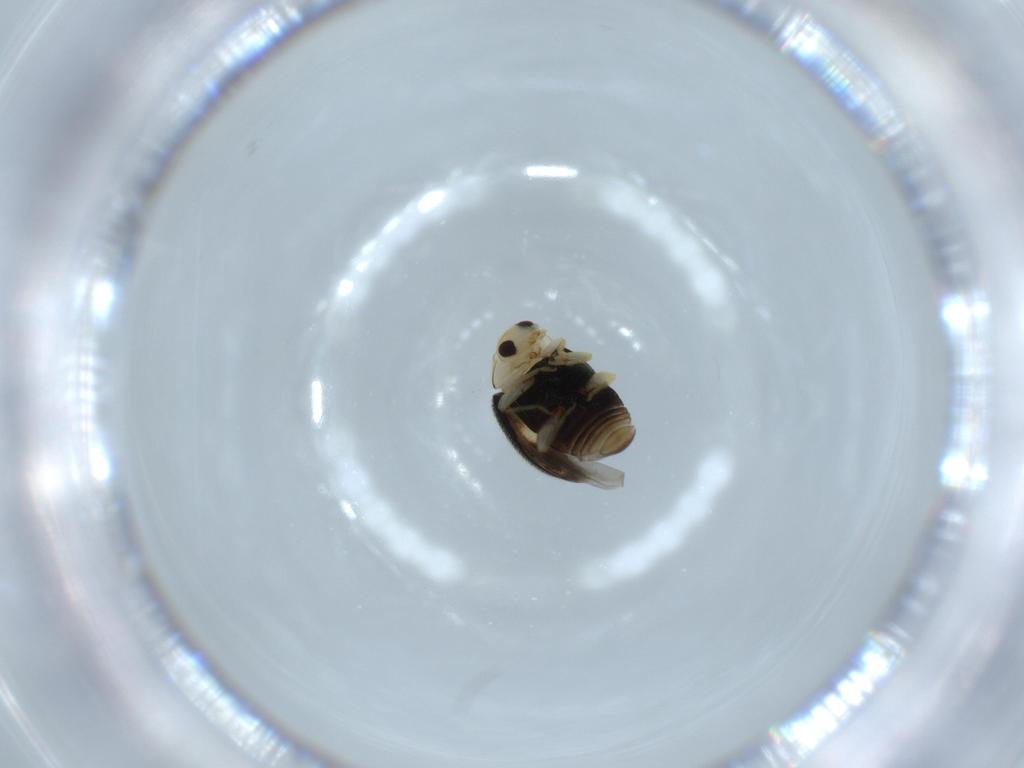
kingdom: Animalia
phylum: Arthropoda
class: Insecta
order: Coleoptera
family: Coccinellidae
